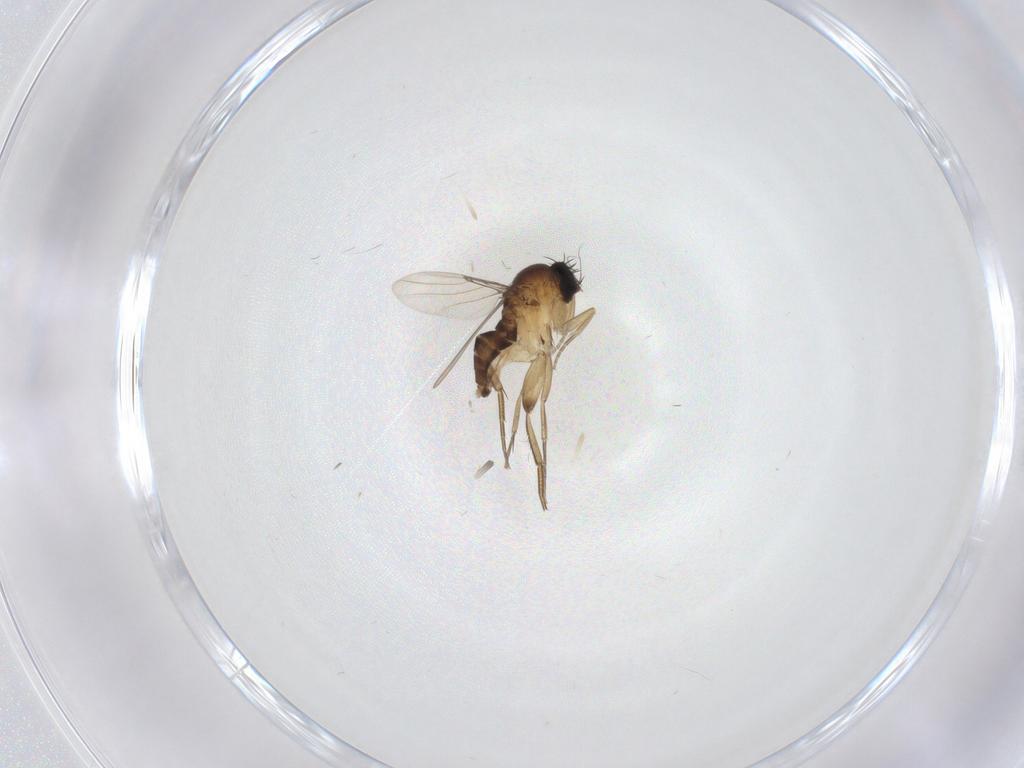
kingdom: Animalia
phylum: Arthropoda
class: Insecta
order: Diptera
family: Phoridae
